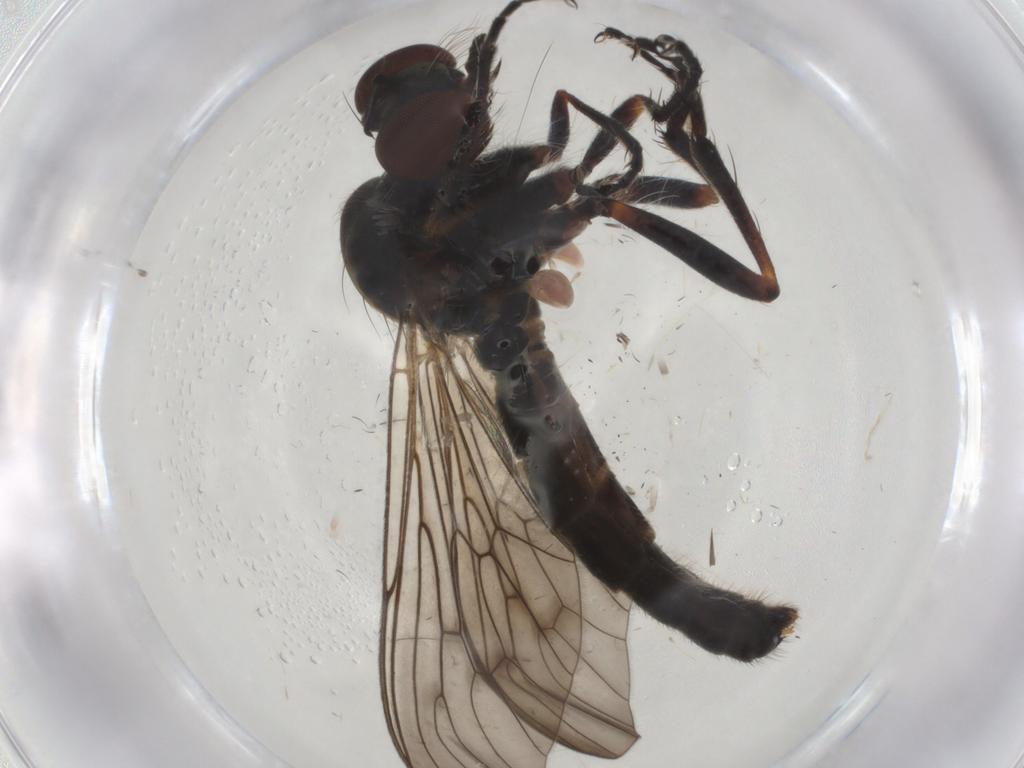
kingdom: Animalia
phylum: Arthropoda
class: Insecta
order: Diptera
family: Asilidae
